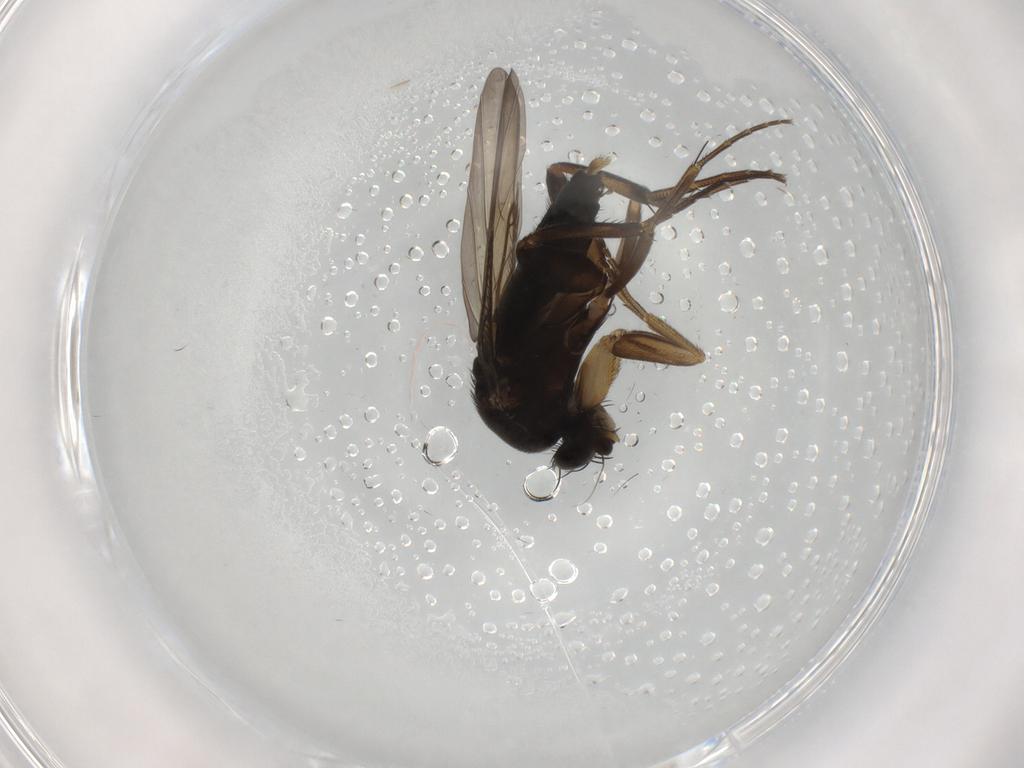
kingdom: Animalia
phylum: Arthropoda
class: Insecta
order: Diptera
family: Phoridae
